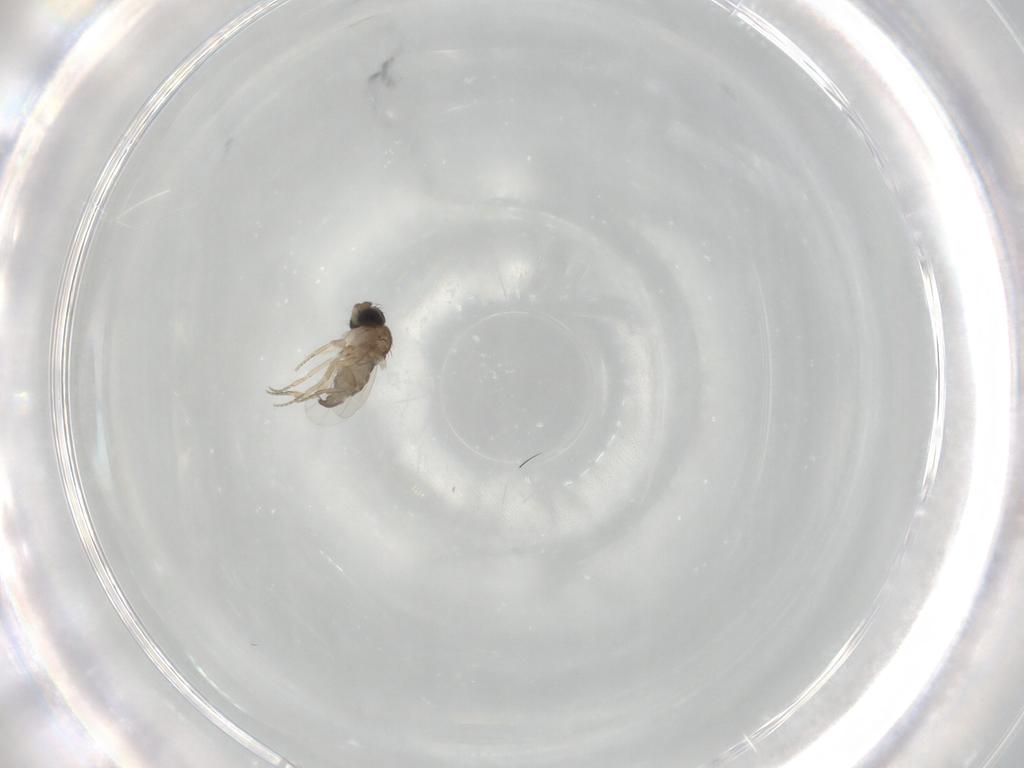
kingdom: Animalia
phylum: Arthropoda
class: Insecta
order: Diptera
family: Phoridae
